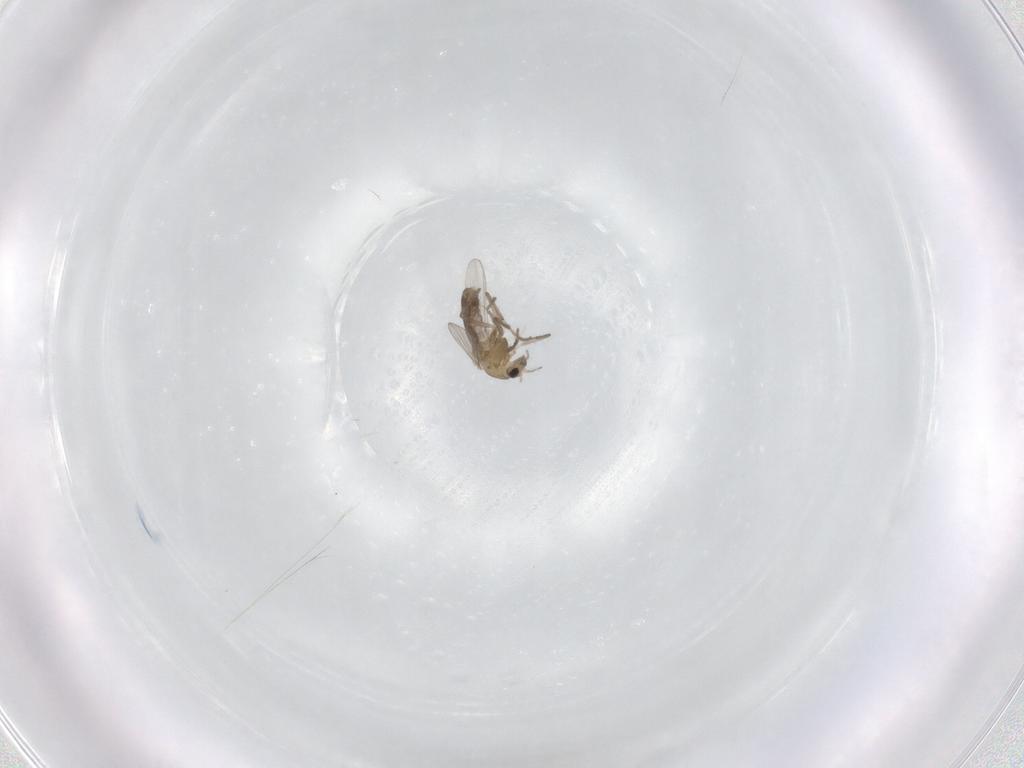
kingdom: Animalia
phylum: Arthropoda
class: Insecta
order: Diptera
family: Chironomidae
